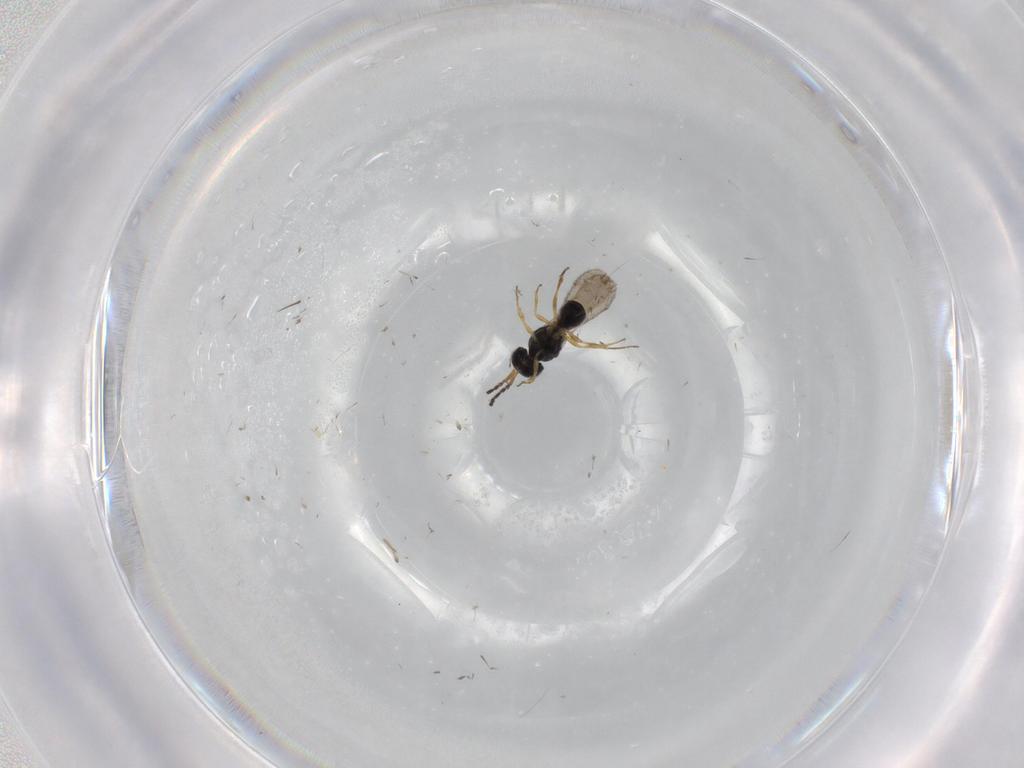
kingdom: Animalia
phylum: Arthropoda
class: Insecta
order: Hymenoptera
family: Scelionidae
